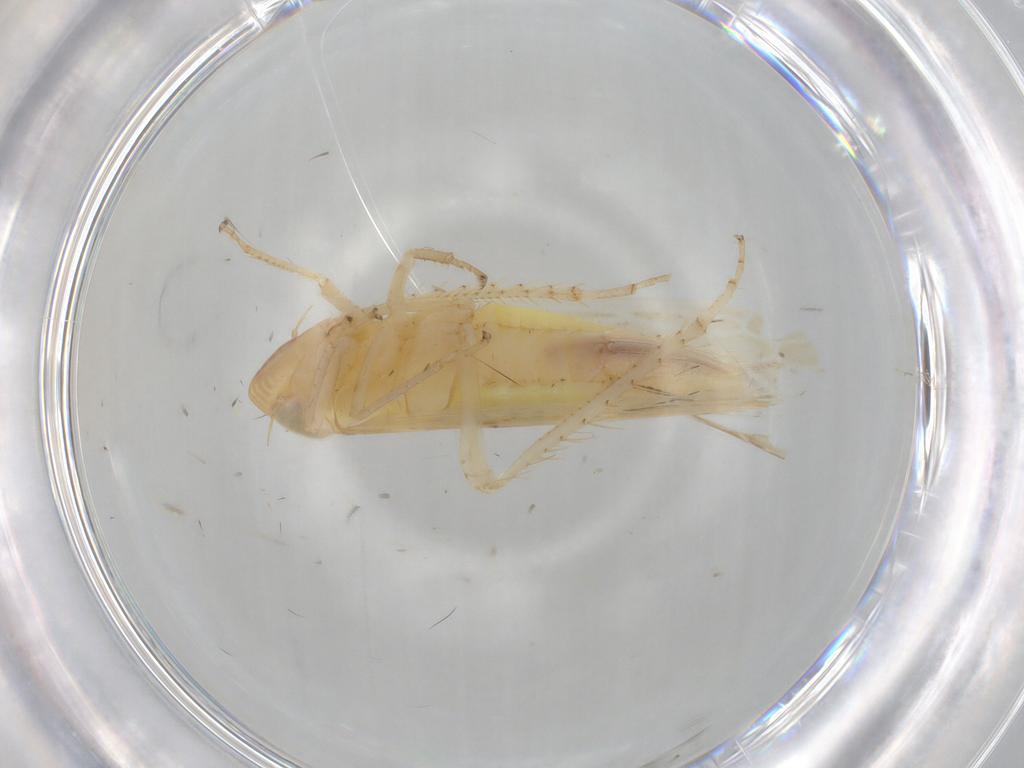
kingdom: Animalia
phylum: Arthropoda
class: Insecta
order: Hemiptera
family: Cicadellidae
